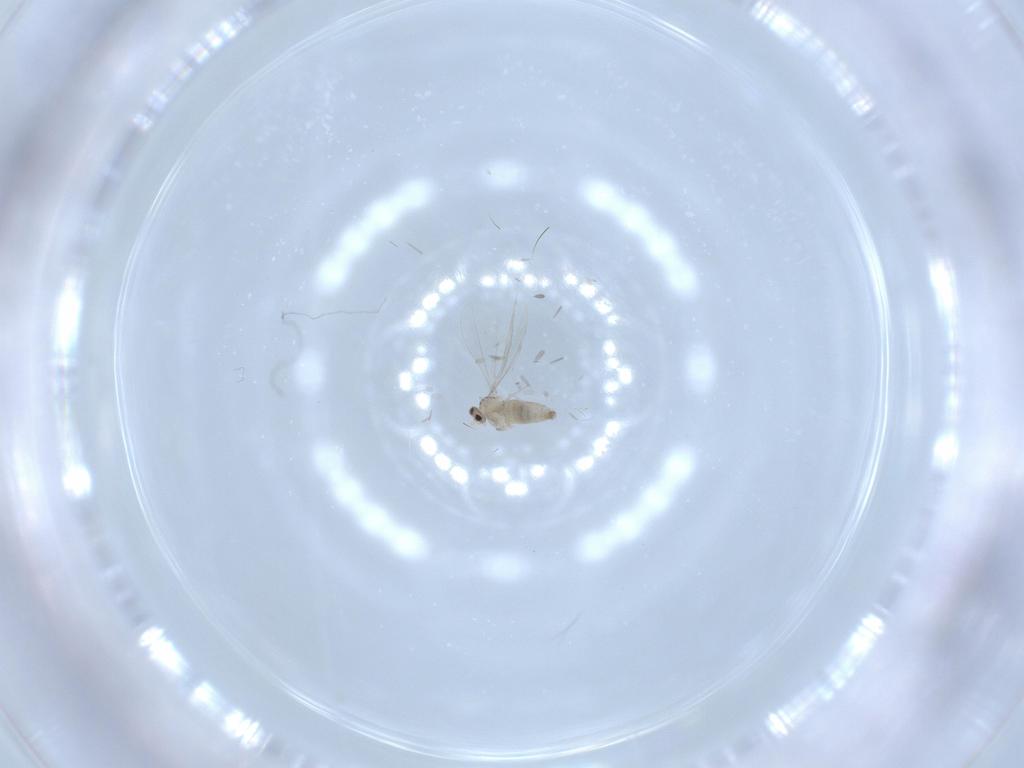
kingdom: Animalia
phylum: Arthropoda
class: Insecta
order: Diptera
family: Cecidomyiidae
